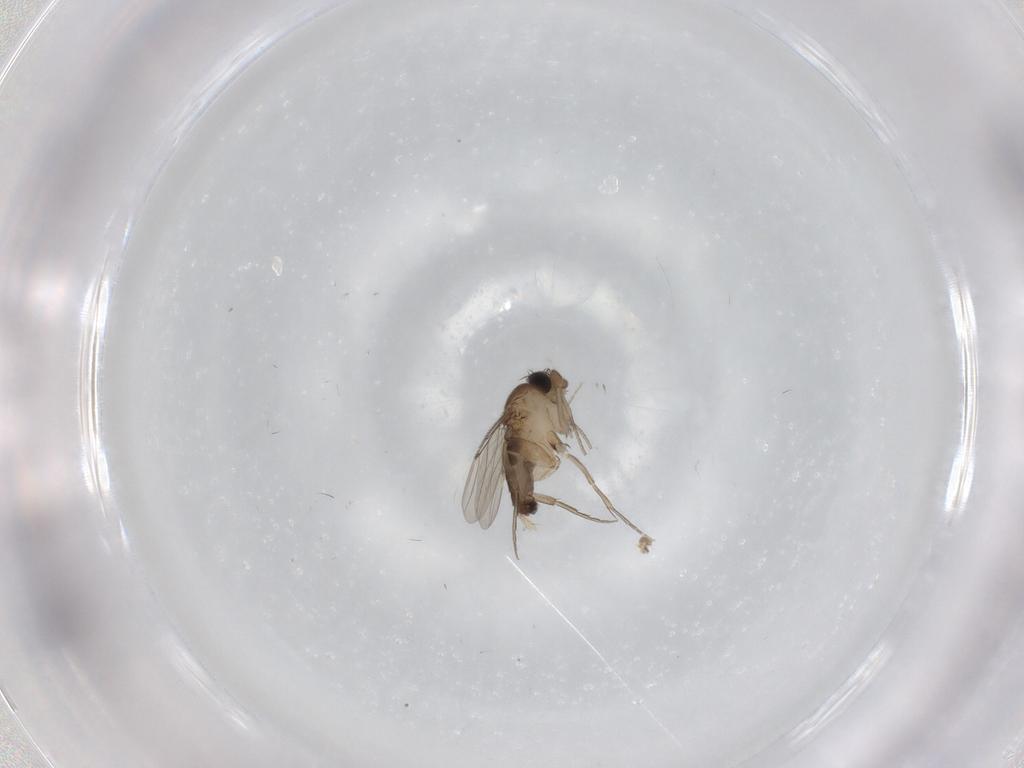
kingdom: Animalia
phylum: Arthropoda
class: Insecta
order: Diptera
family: Phoridae
